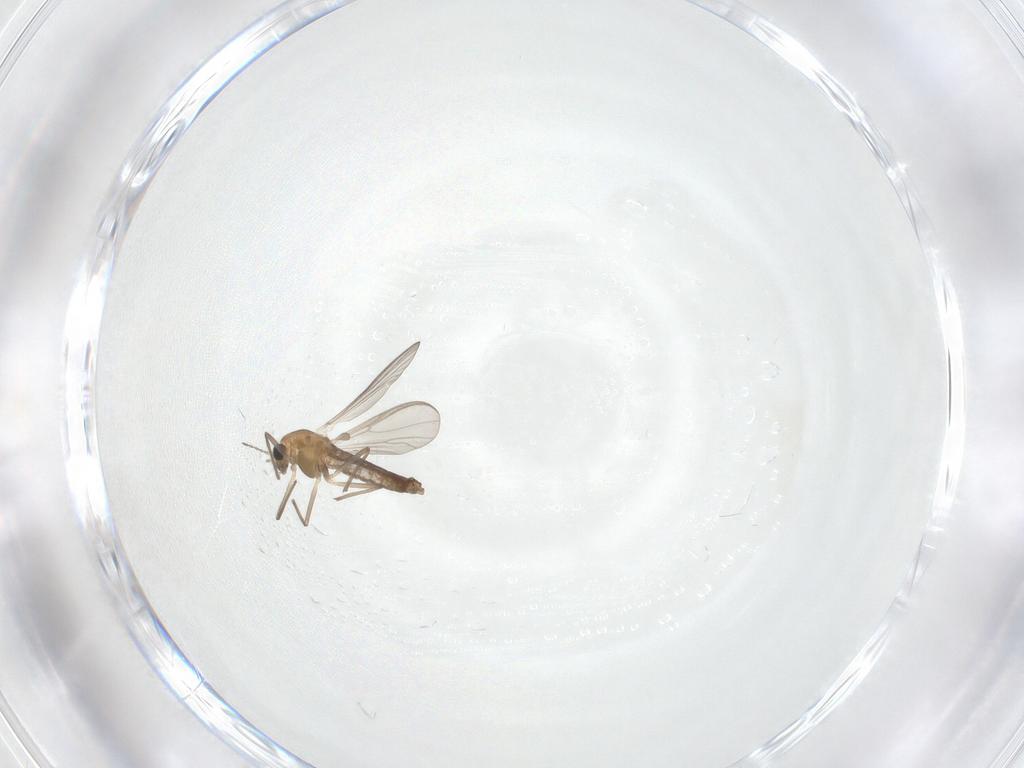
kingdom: Animalia
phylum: Arthropoda
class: Insecta
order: Diptera
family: Chironomidae
